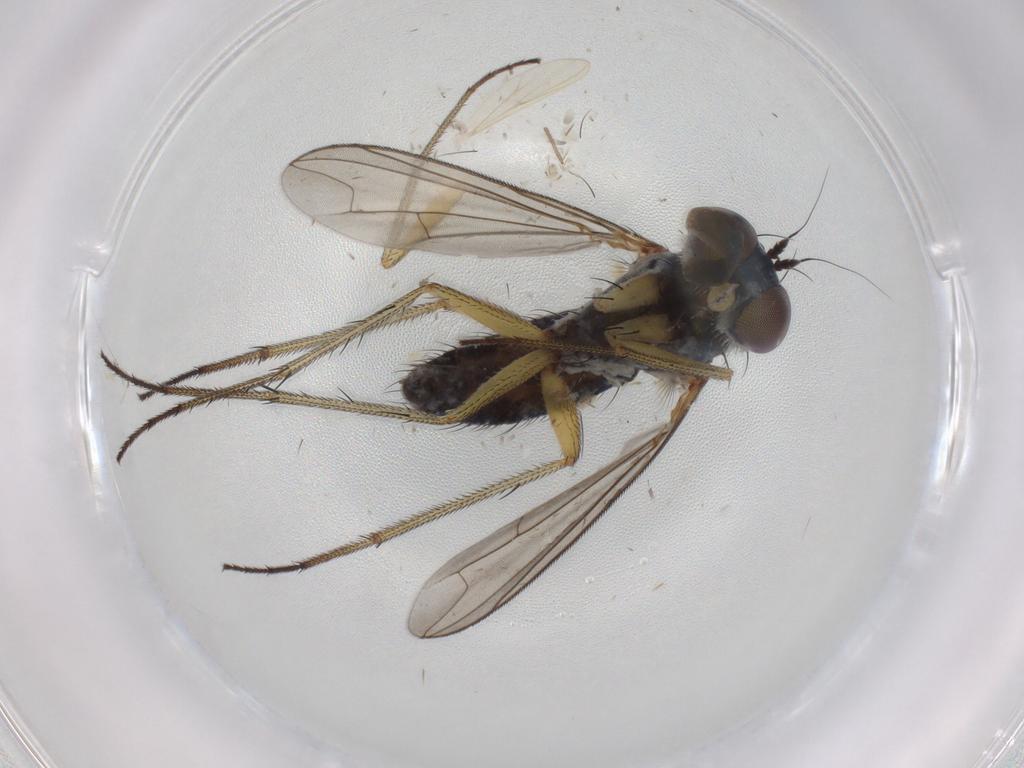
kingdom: Animalia
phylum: Arthropoda
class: Insecta
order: Diptera
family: Dolichopodidae
